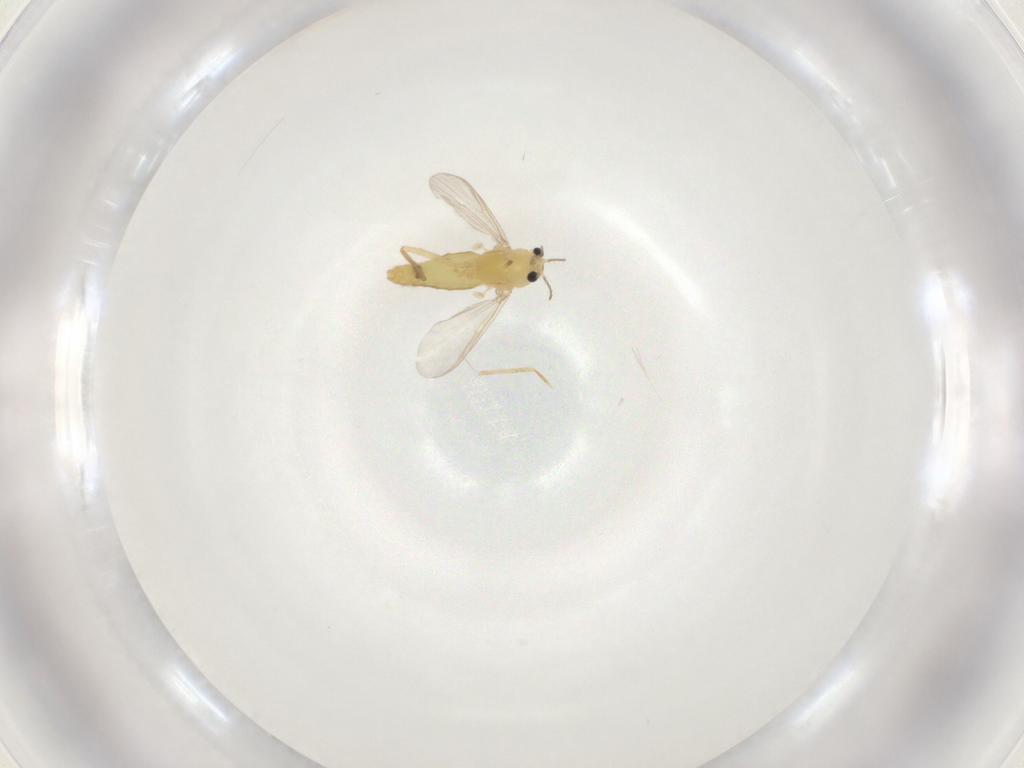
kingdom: Animalia
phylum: Arthropoda
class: Insecta
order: Diptera
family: Chironomidae
